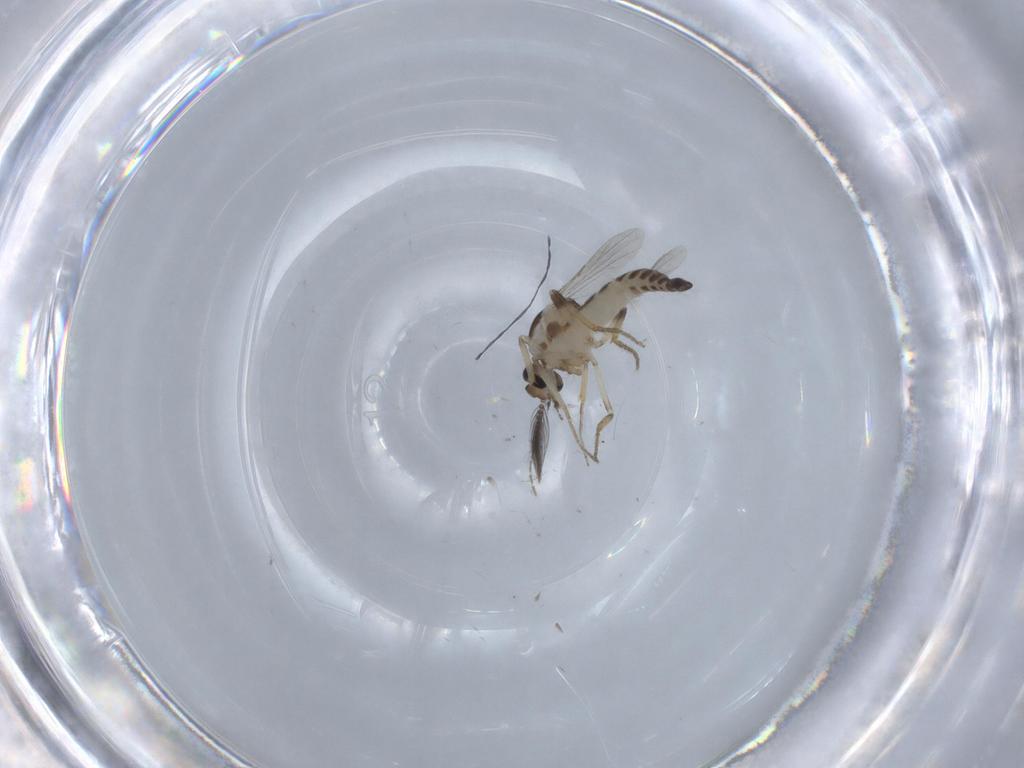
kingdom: Animalia
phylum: Arthropoda
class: Insecta
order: Diptera
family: Ceratopogonidae
